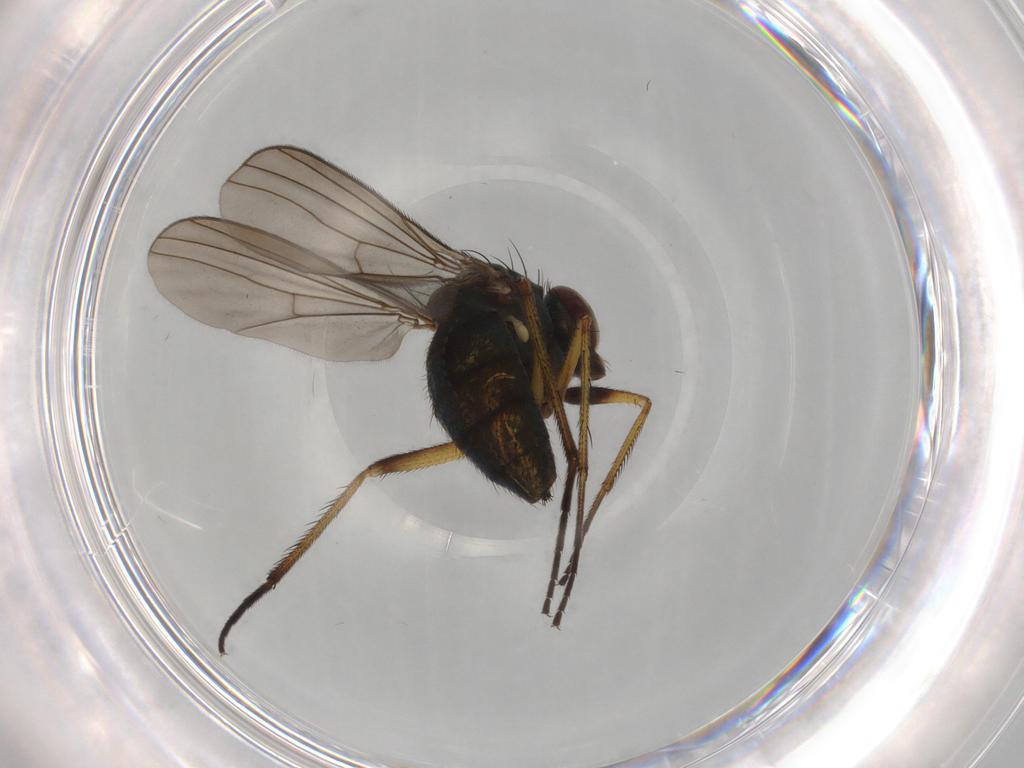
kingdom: Animalia
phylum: Arthropoda
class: Insecta
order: Diptera
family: Dolichopodidae
